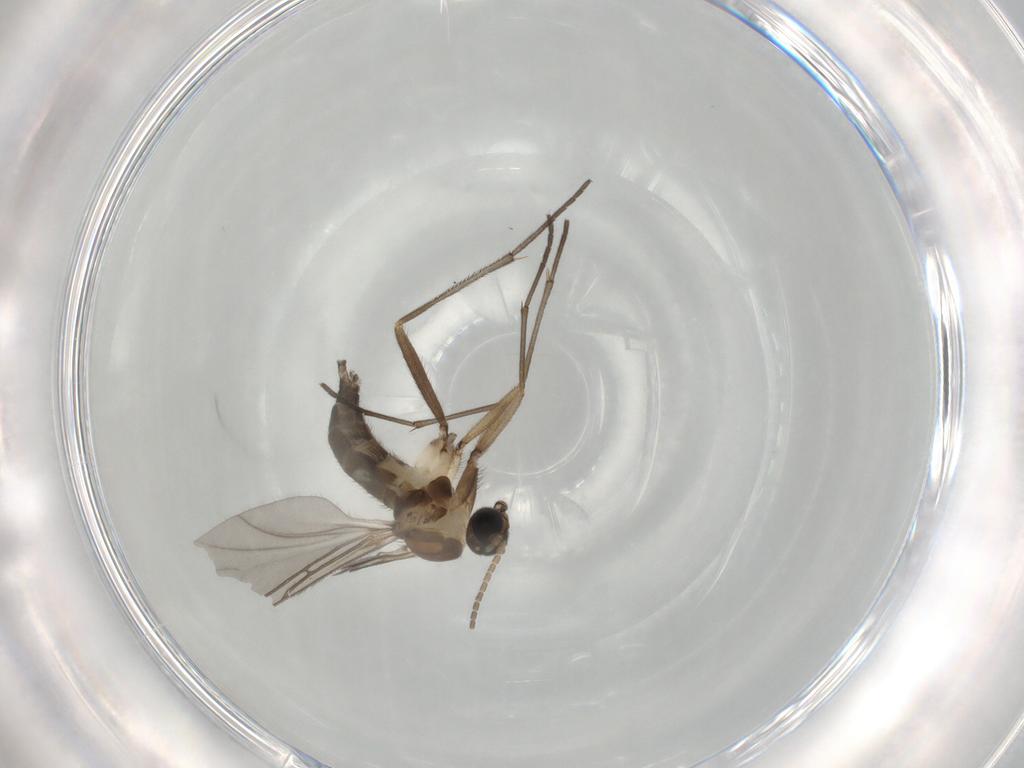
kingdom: Animalia
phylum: Arthropoda
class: Insecta
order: Diptera
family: Sciaridae
